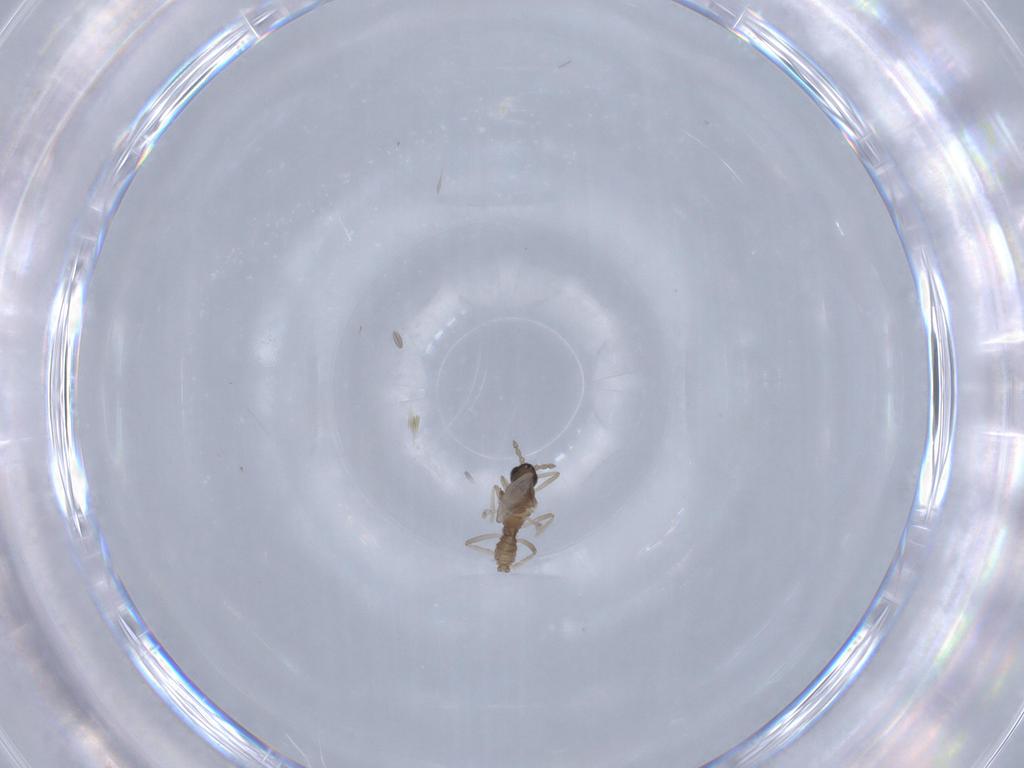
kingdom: Animalia
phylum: Arthropoda
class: Insecta
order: Diptera
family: Cecidomyiidae
